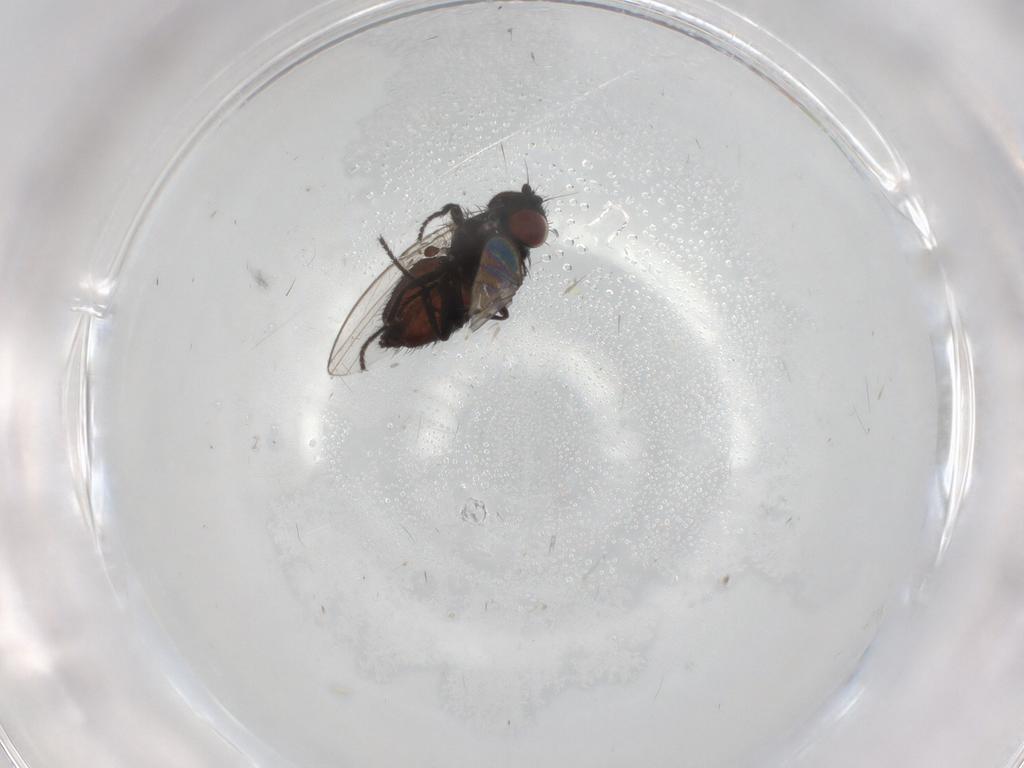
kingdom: Animalia
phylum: Arthropoda
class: Insecta
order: Diptera
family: Milichiidae
